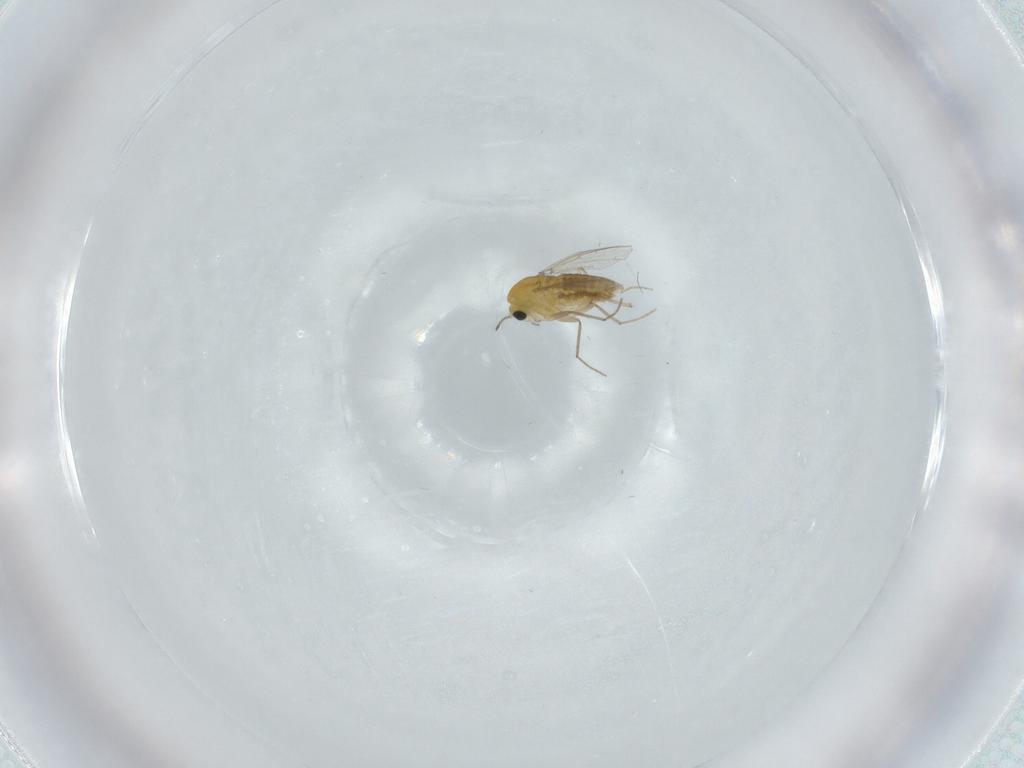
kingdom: Animalia
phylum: Arthropoda
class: Insecta
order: Diptera
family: Chironomidae
